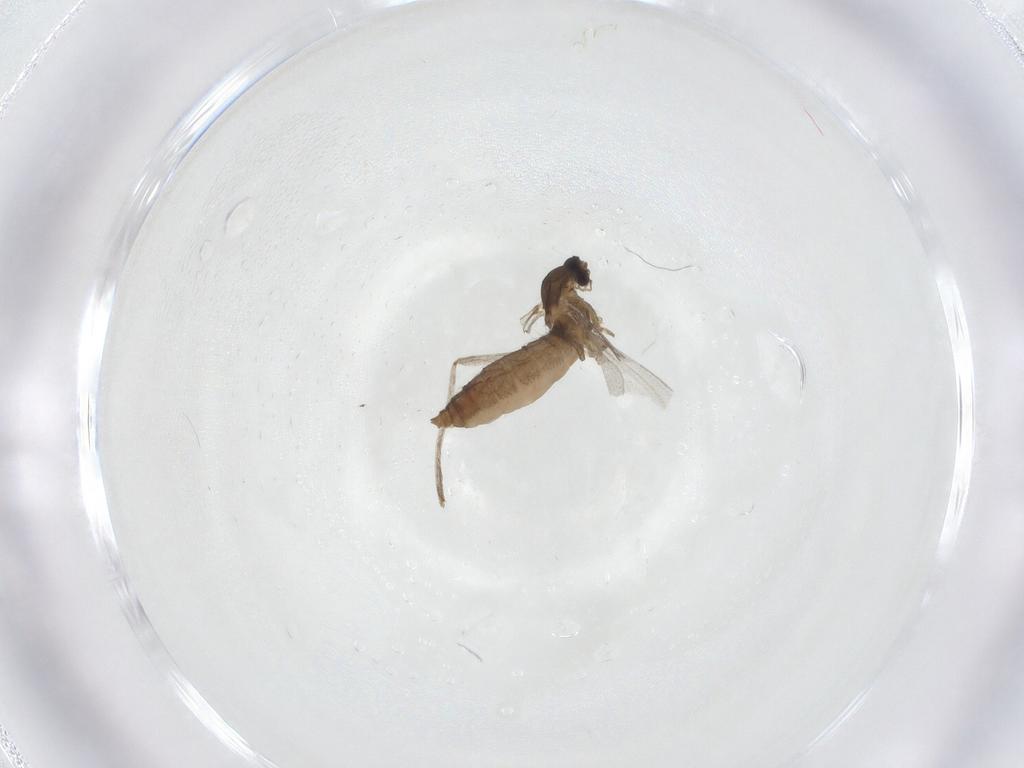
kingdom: Animalia
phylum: Arthropoda
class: Insecta
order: Diptera
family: Cecidomyiidae
